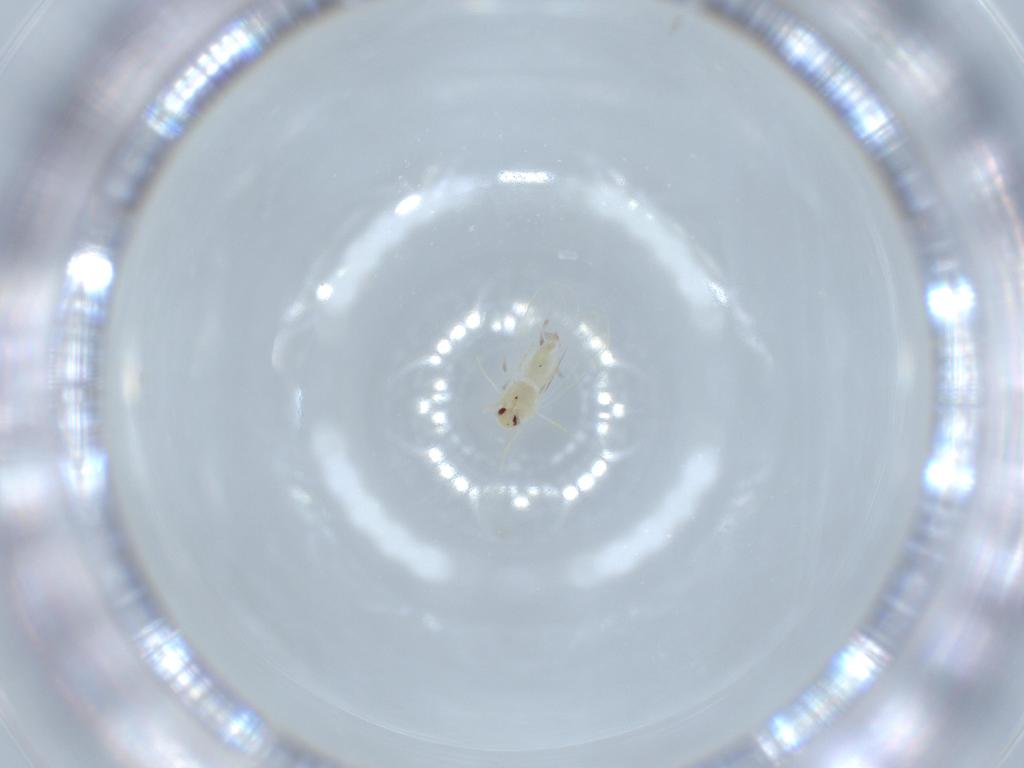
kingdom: Animalia
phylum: Arthropoda
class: Insecta
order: Hemiptera
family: Aleyrodidae
